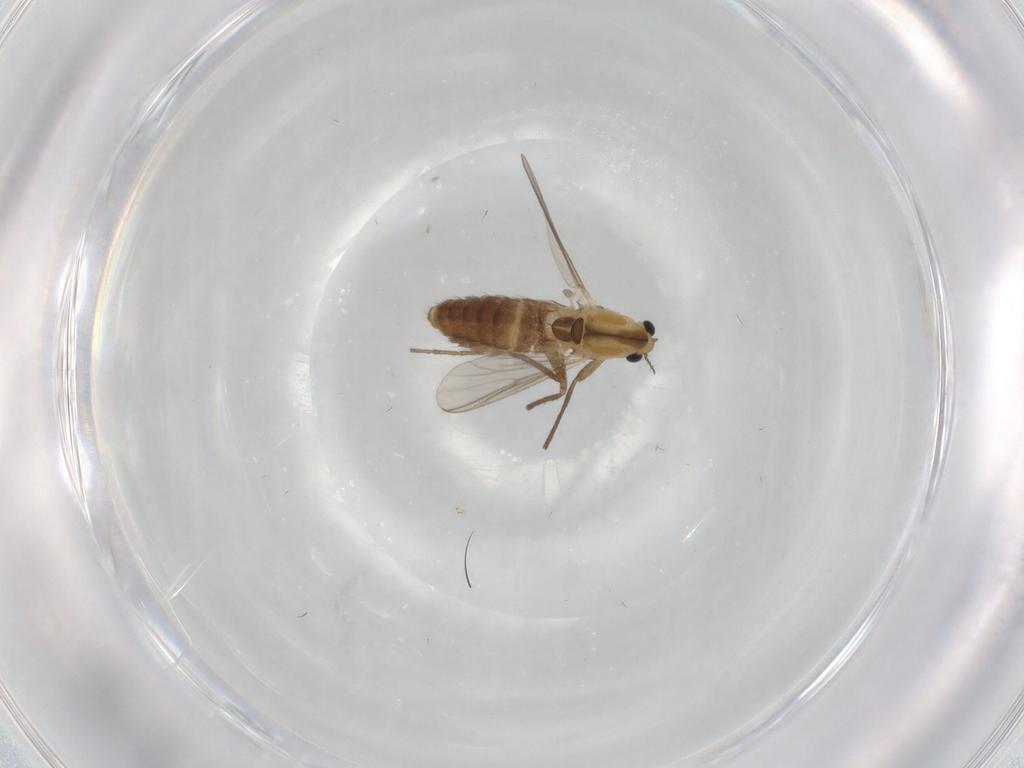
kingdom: Animalia
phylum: Arthropoda
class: Insecta
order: Diptera
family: Chironomidae
